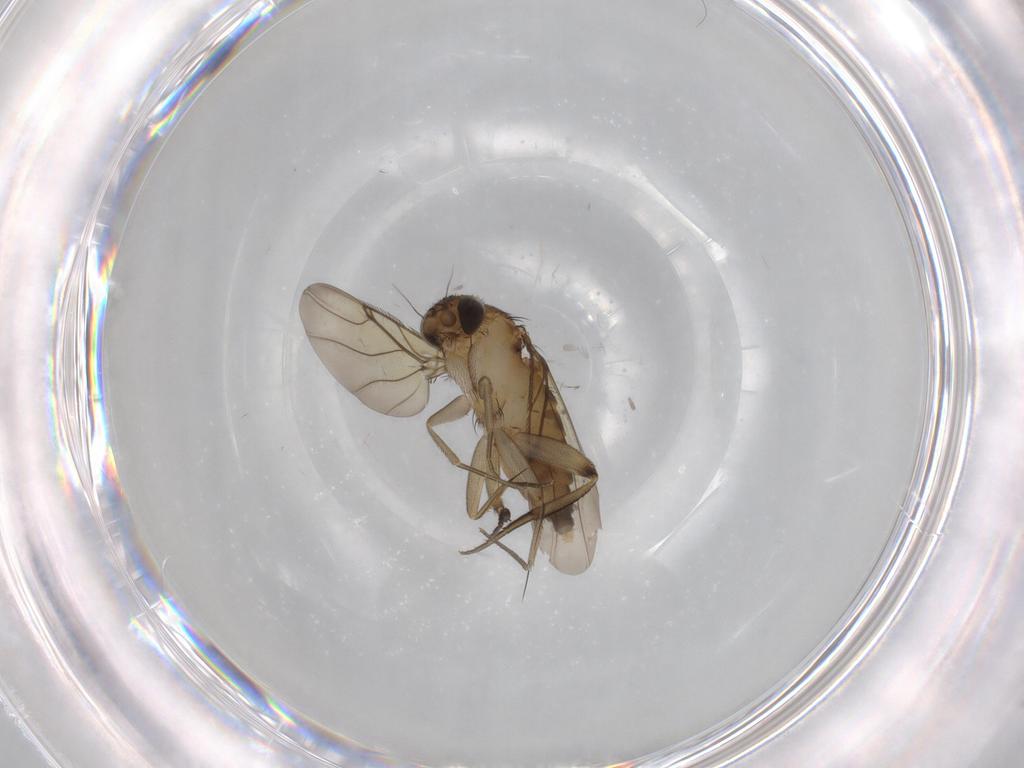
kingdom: Animalia
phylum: Arthropoda
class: Insecta
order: Diptera
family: Phoridae
